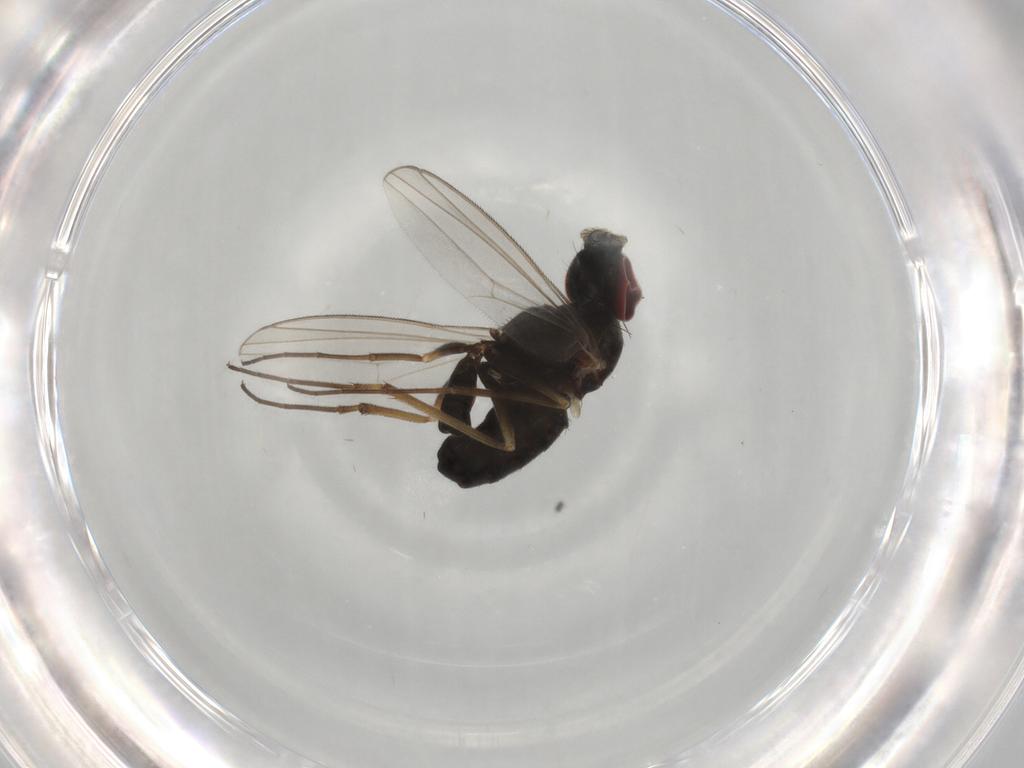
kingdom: Animalia
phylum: Arthropoda
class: Insecta
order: Diptera
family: Dolichopodidae
